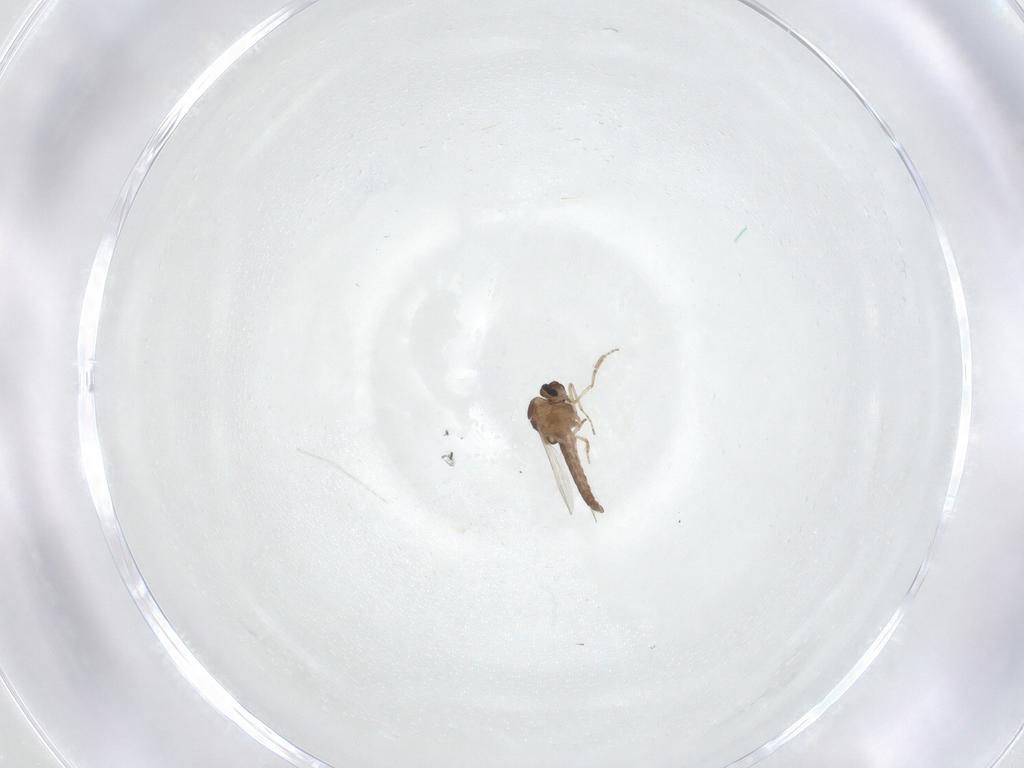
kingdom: Animalia
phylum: Arthropoda
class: Insecta
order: Diptera
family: Ceratopogonidae
